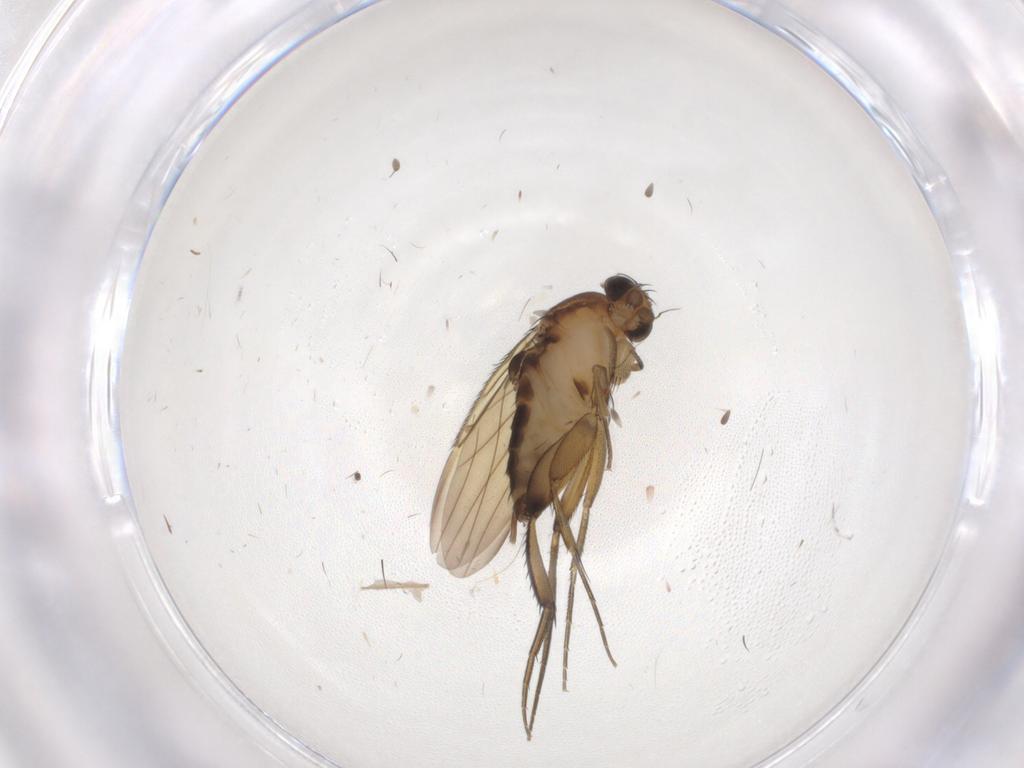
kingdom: Animalia
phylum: Arthropoda
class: Insecta
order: Diptera
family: Phoridae
